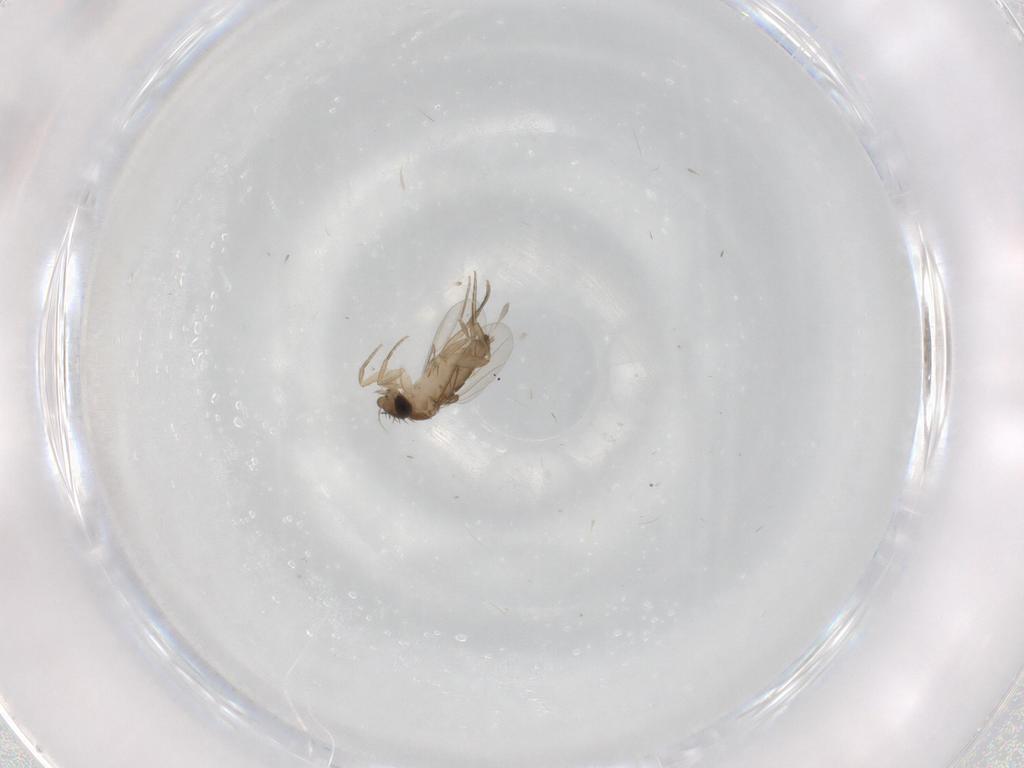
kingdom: Animalia
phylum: Arthropoda
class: Insecta
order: Diptera
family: Phoridae
